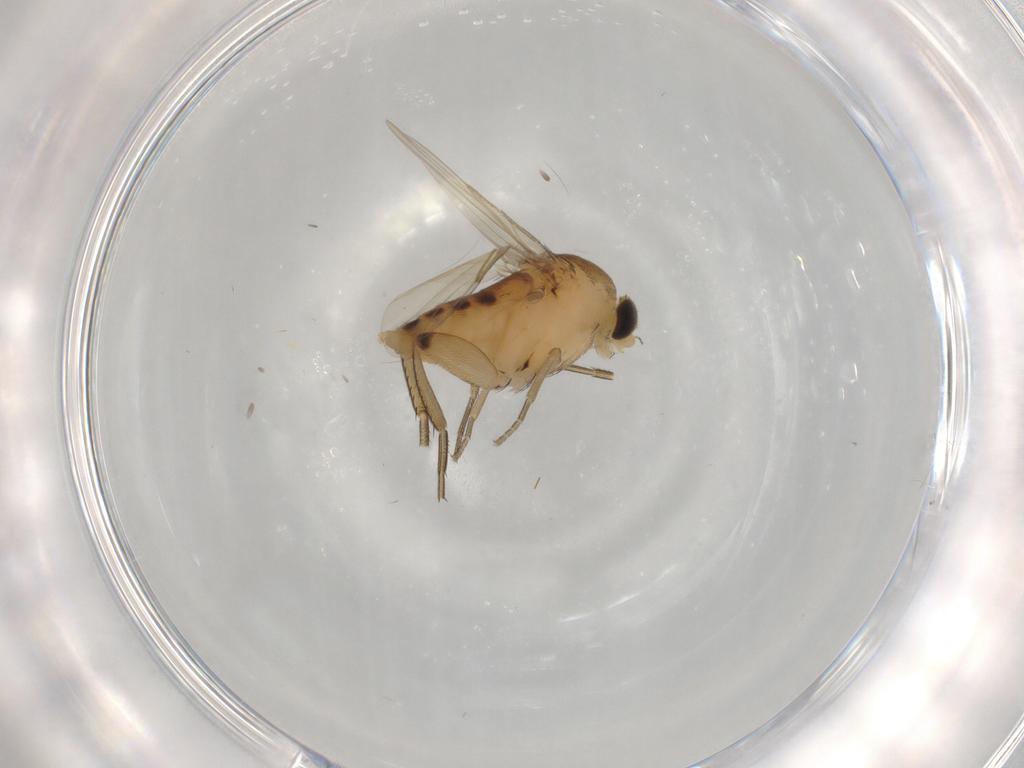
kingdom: Animalia
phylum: Arthropoda
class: Insecta
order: Diptera
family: Phoridae
